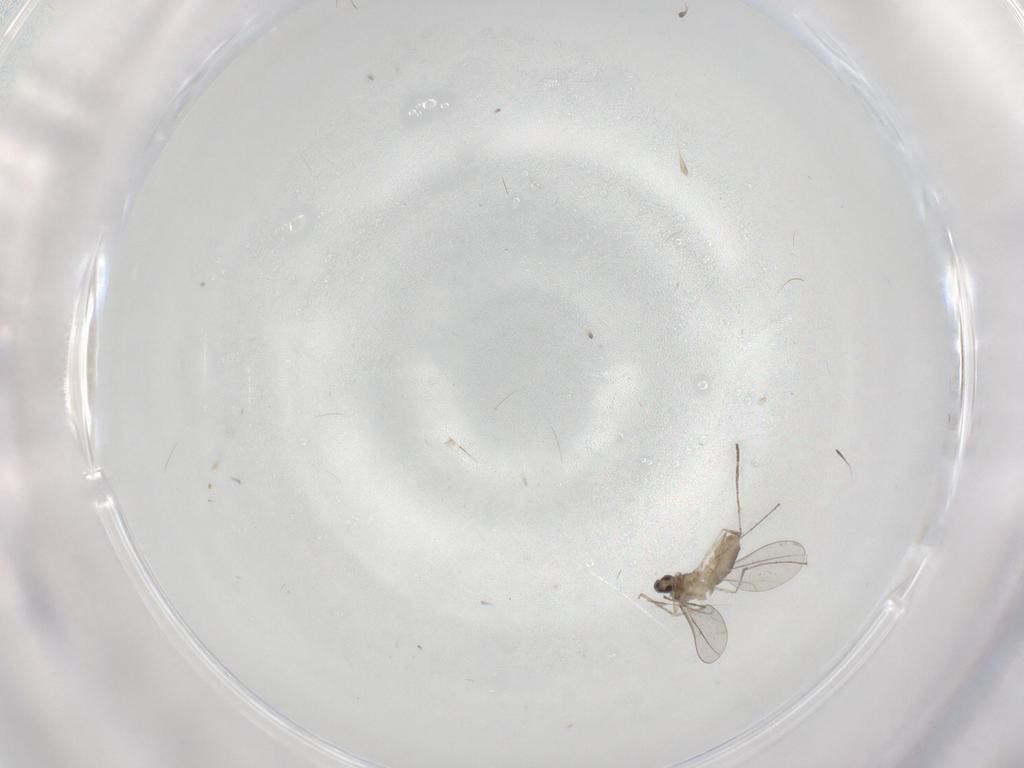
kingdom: Animalia
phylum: Arthropoda
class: Insecta
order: Diptera
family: Cecidomyiidae
